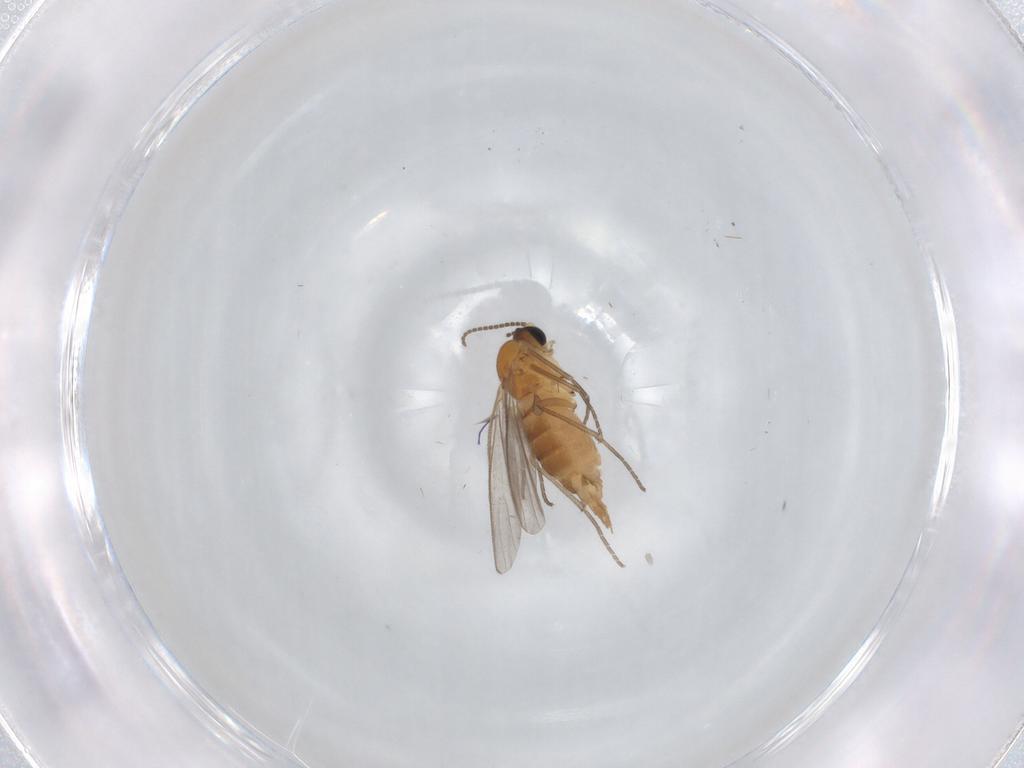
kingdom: Animalia
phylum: Arthropoda
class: Insecta
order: Diptera
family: Sciaridae
